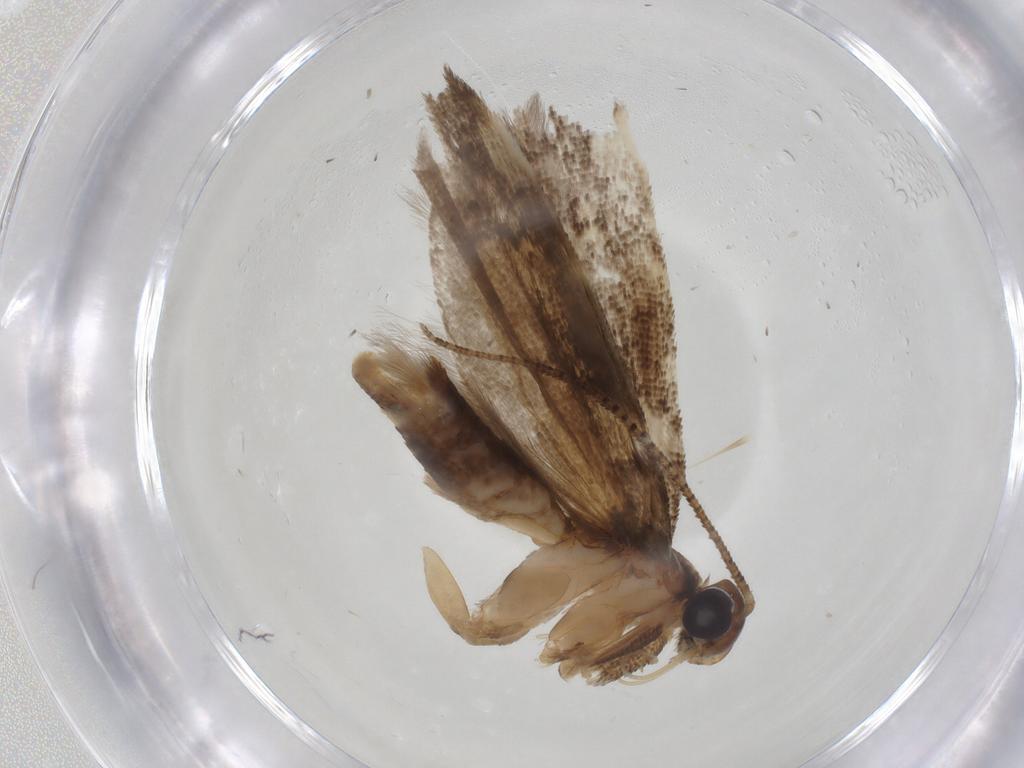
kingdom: Animalia
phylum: Arthropoda
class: Insecta
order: Lepidoptera
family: Gelechiidae
